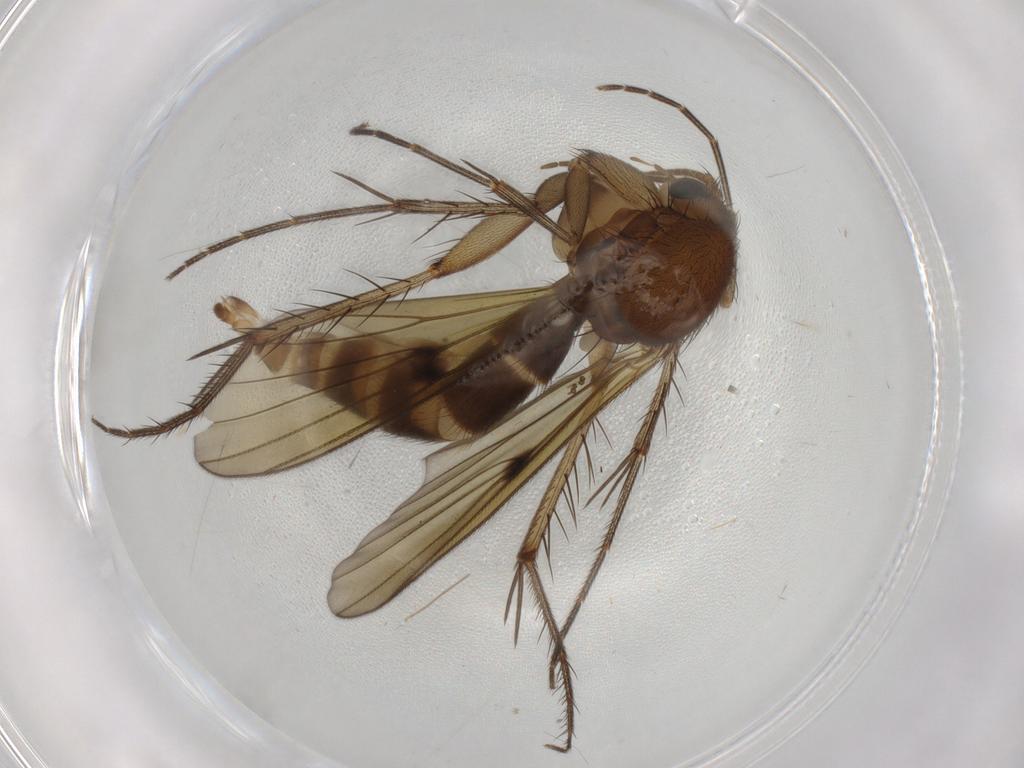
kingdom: Animalia
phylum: Arthropoda
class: Insecta
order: Diptera
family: Mycetophilidae
